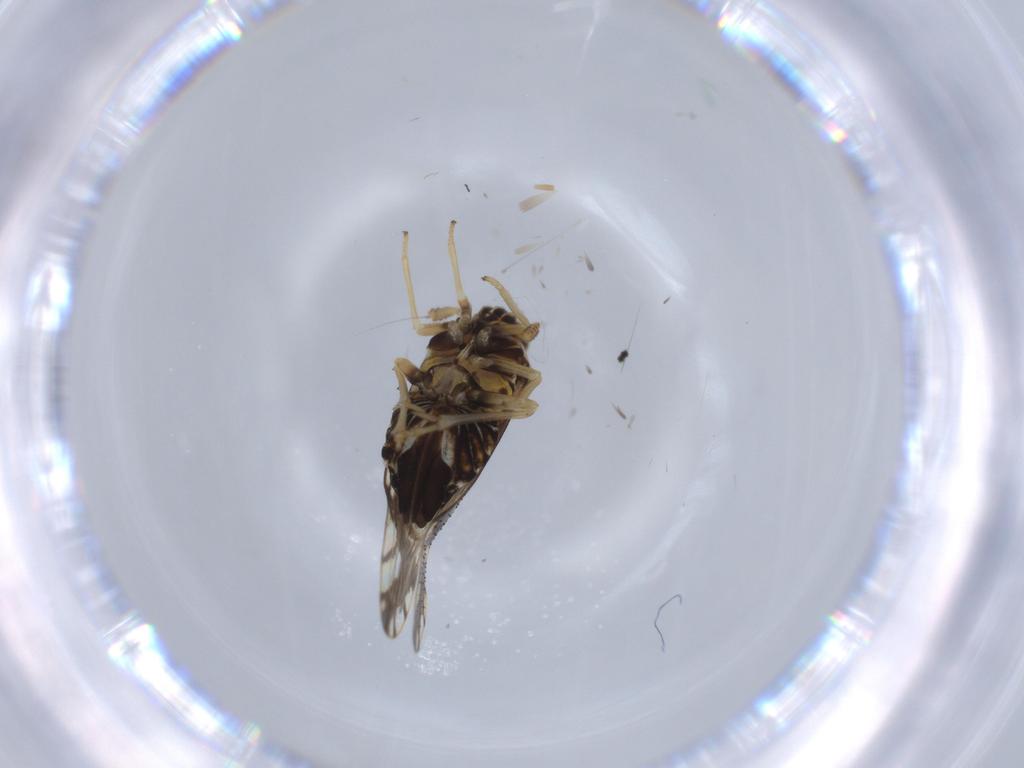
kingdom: Animalia
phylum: Arthropoda
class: Insecta
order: Hemiptera
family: Delphacidae
